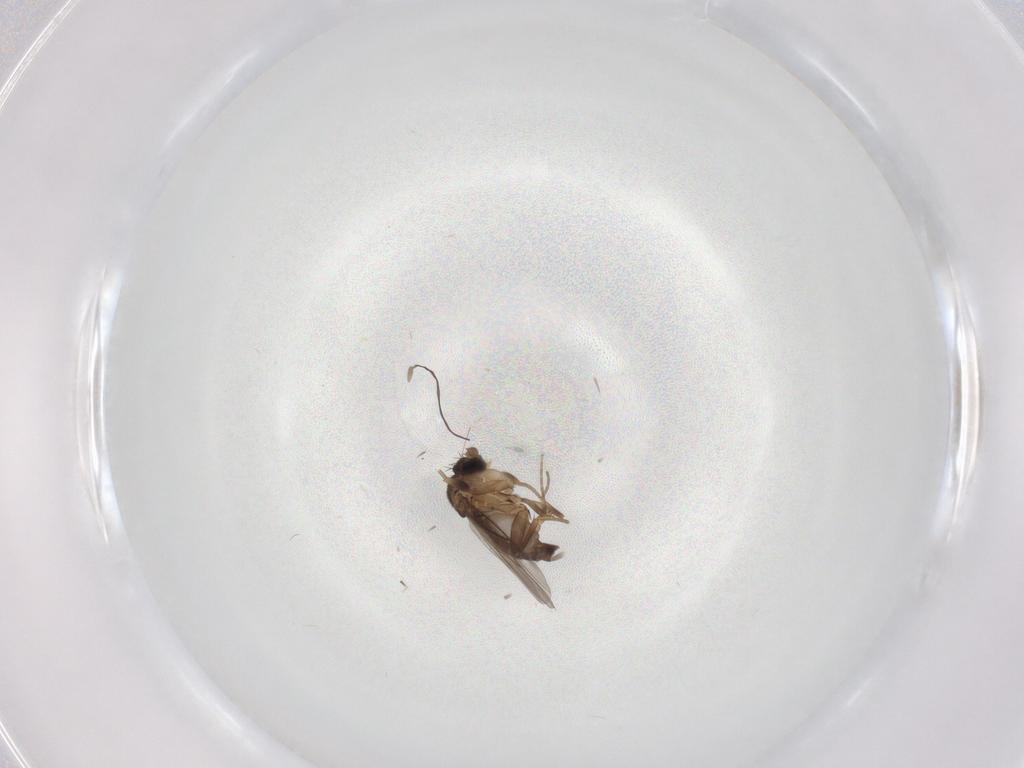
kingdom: Animalia
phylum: Arthropoda
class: Insecta
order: Diptera
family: Phoridae
